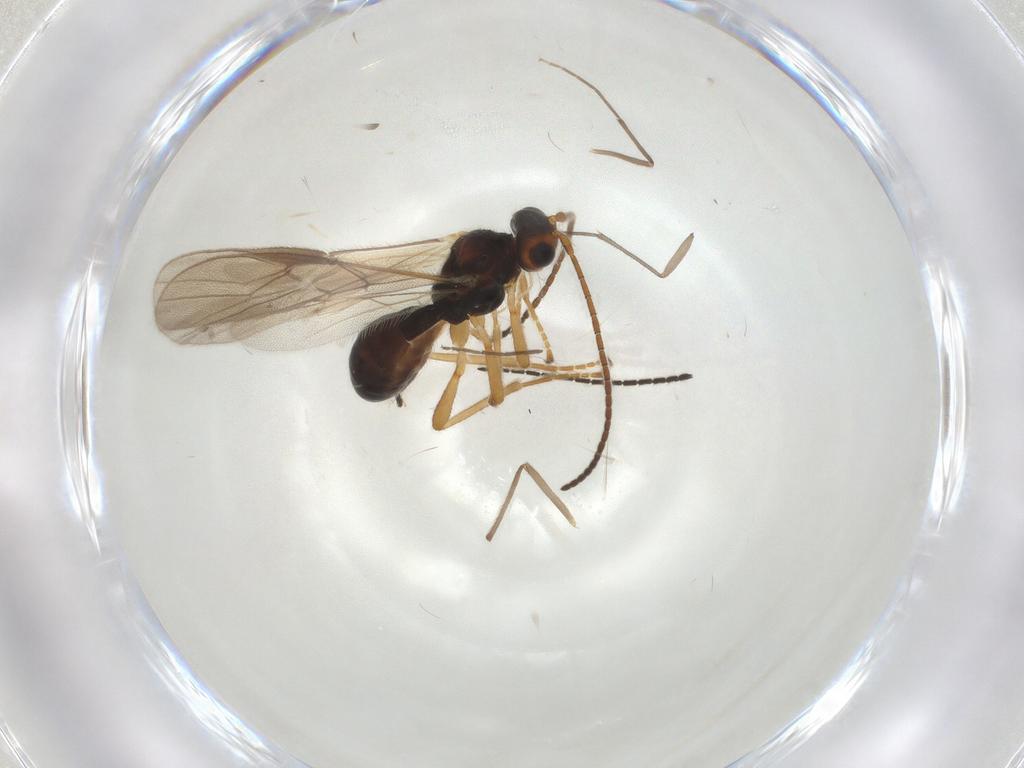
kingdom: Animalia
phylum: Arthropoda
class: Insecta
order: Hymenoptera
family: Braconidae
